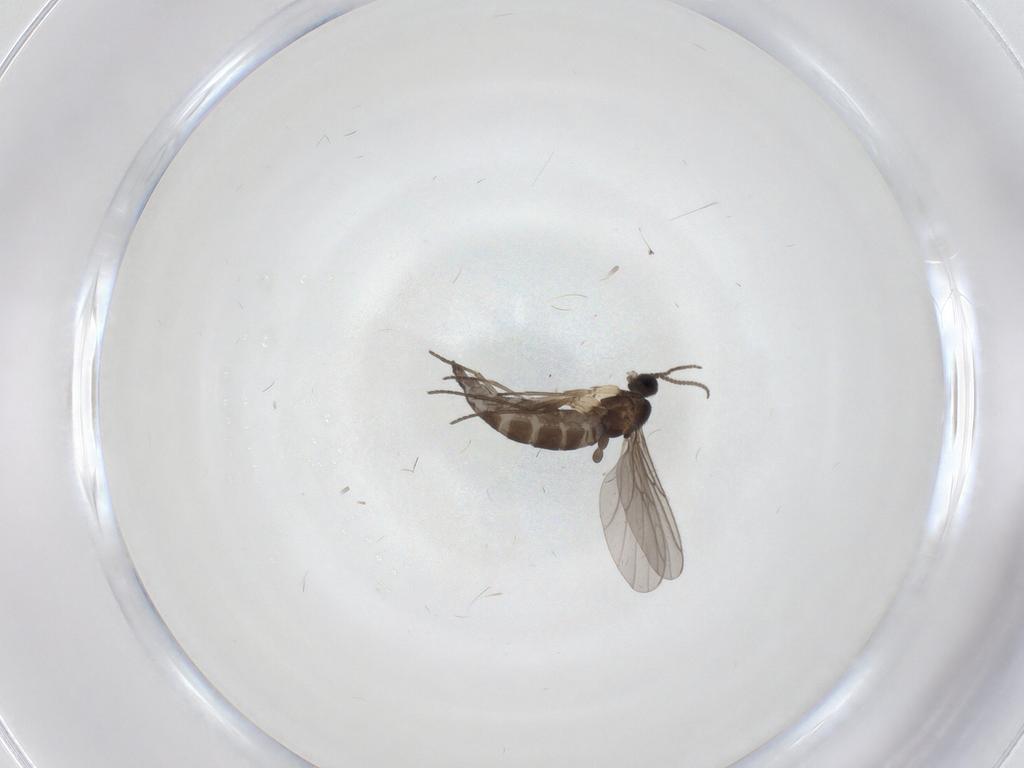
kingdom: Animalia
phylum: Arthropoda
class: Insecta
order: Diptera
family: Sciaridae
